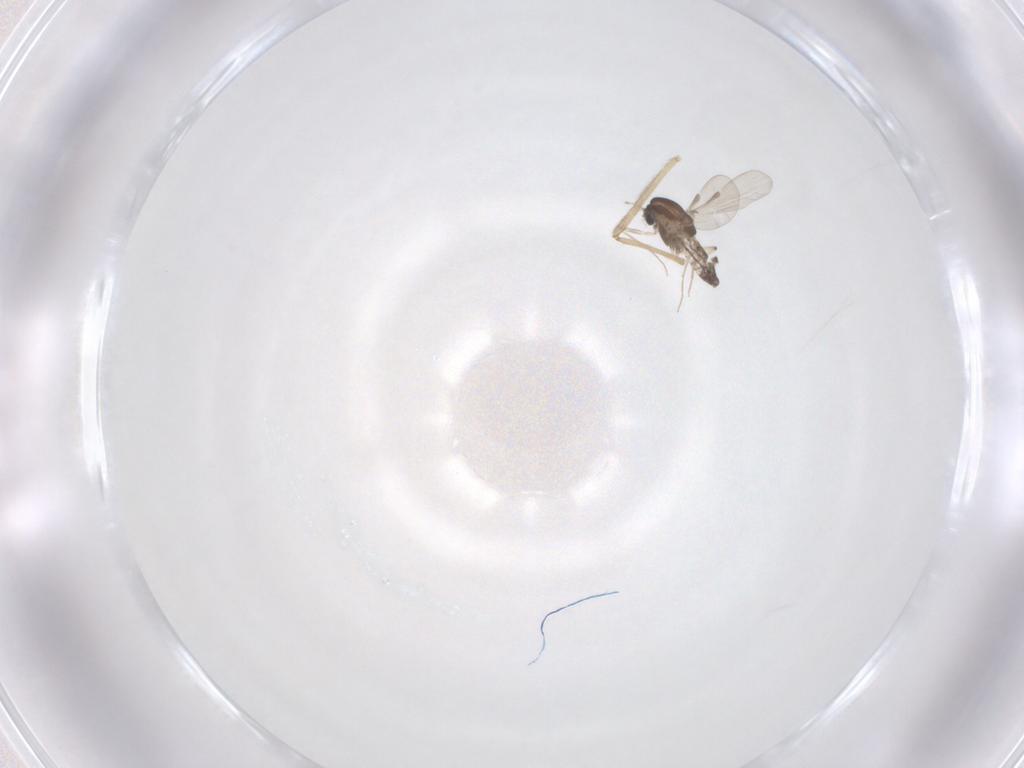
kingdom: Animalia
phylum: Arthropoda
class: Insecta
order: Diptera
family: Chironomidae
